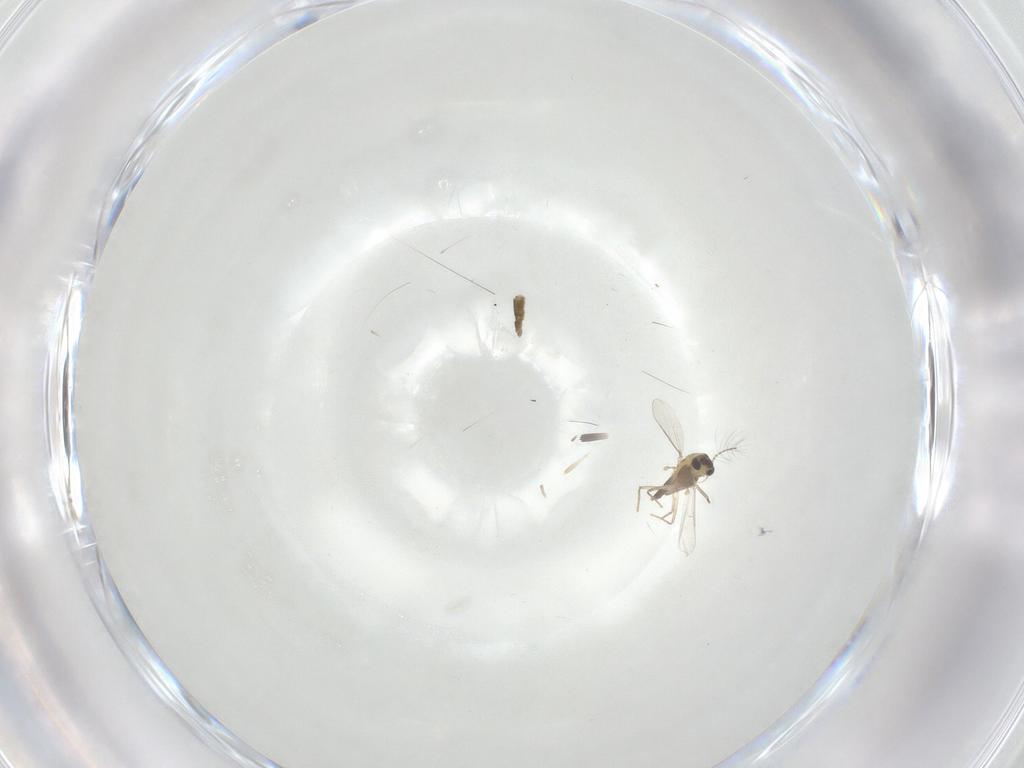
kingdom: Animalia
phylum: Arthropoda
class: Insecta
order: Diptera
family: Chironomidae
